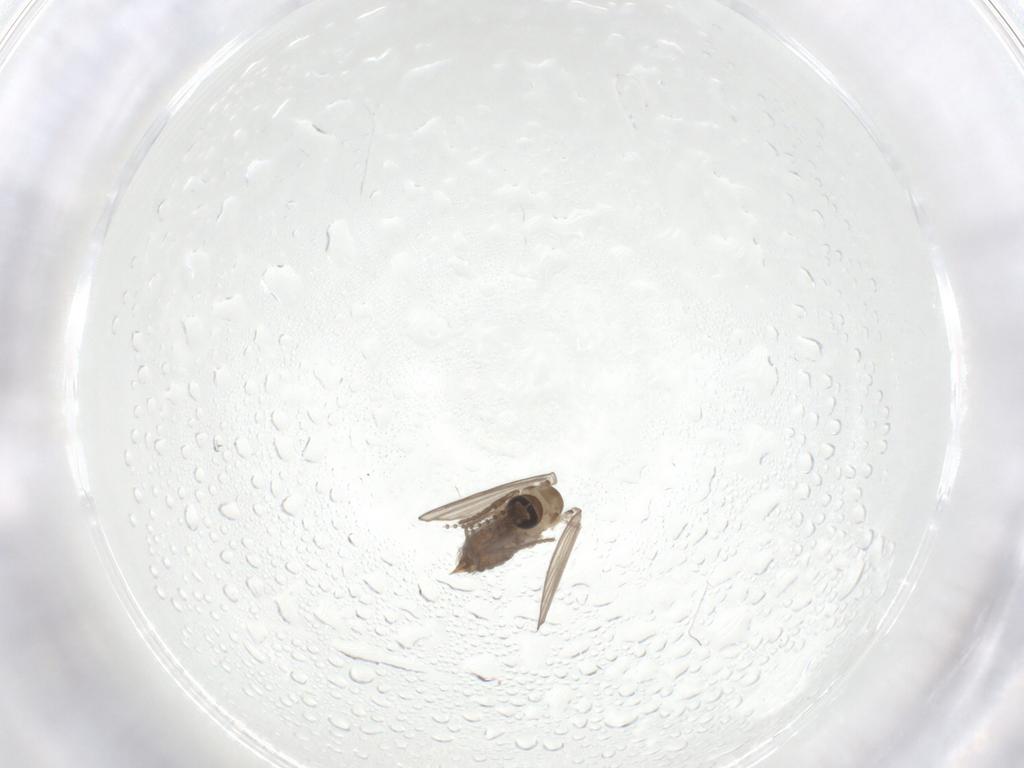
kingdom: Animalia
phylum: Arthropoda
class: Insecta
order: Diptera
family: Psychodidae
